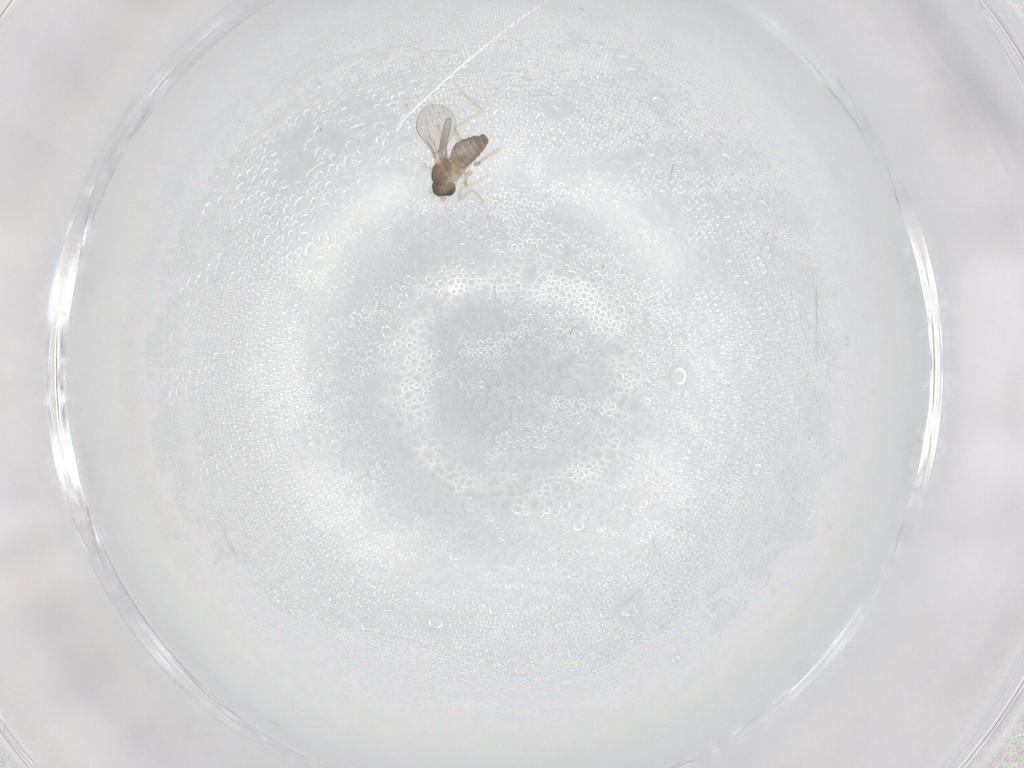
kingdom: Animalia
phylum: Arthropoda
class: Insecta
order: Diptera
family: Cecidomyiidae
